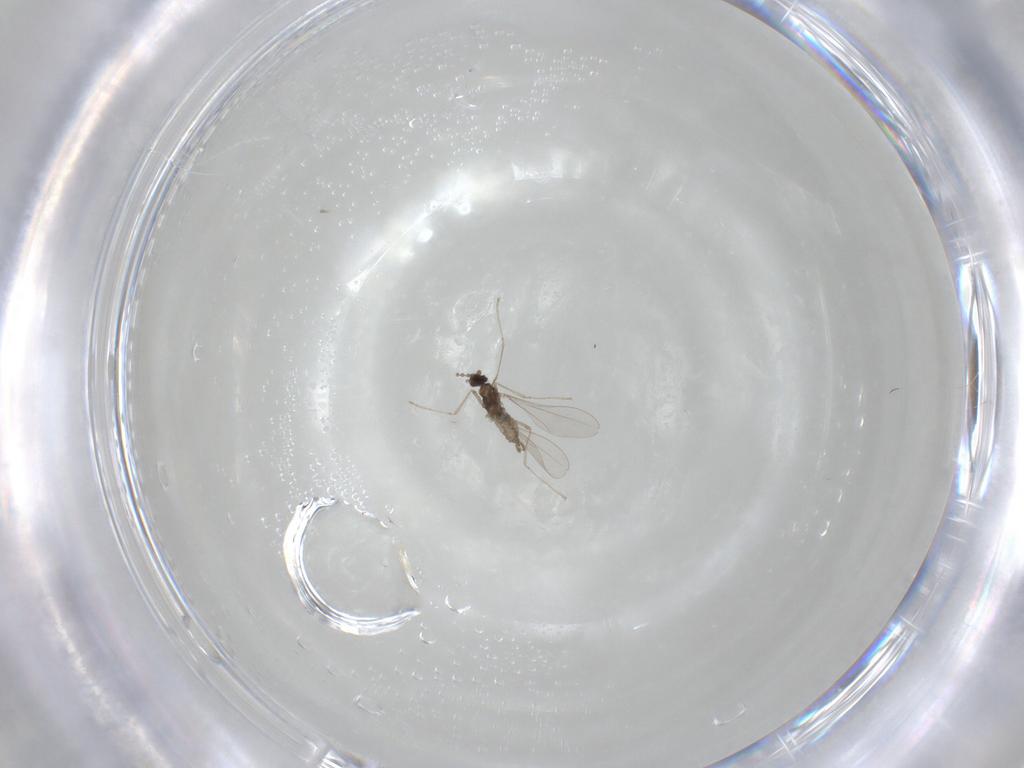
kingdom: Animalia
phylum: Arthropoda
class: Insecta
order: Diptera
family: Cecidomyiidae
